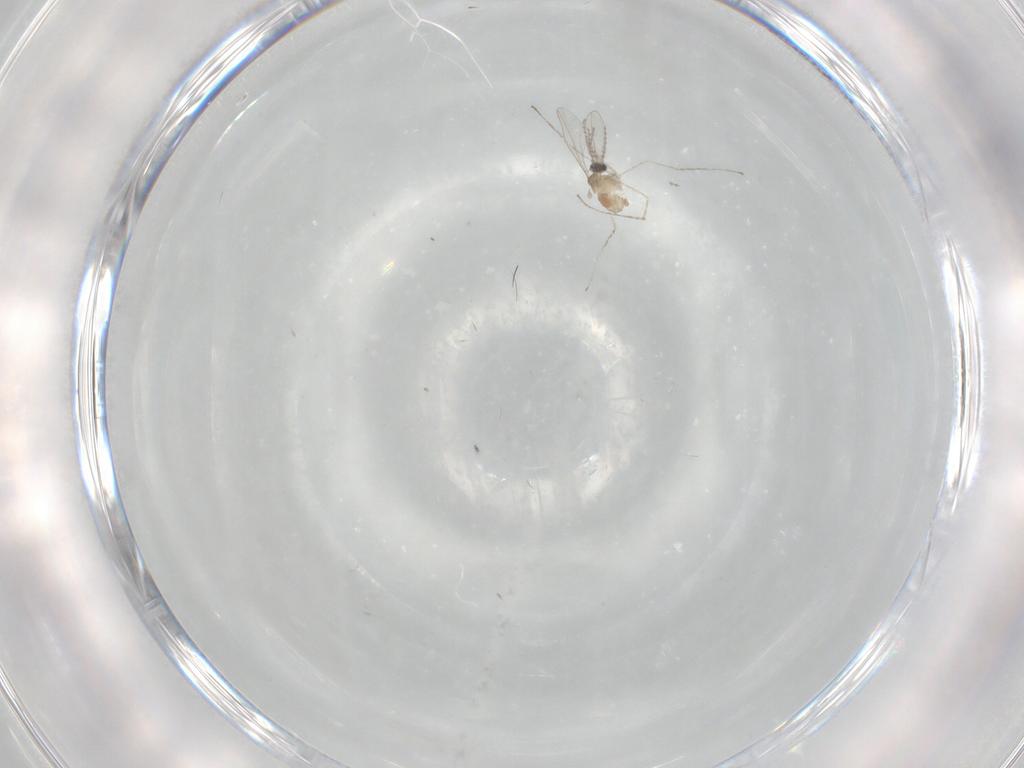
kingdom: Animalia
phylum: Arthropoda
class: Insecta
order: Diptera
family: Cecidomyiidae
